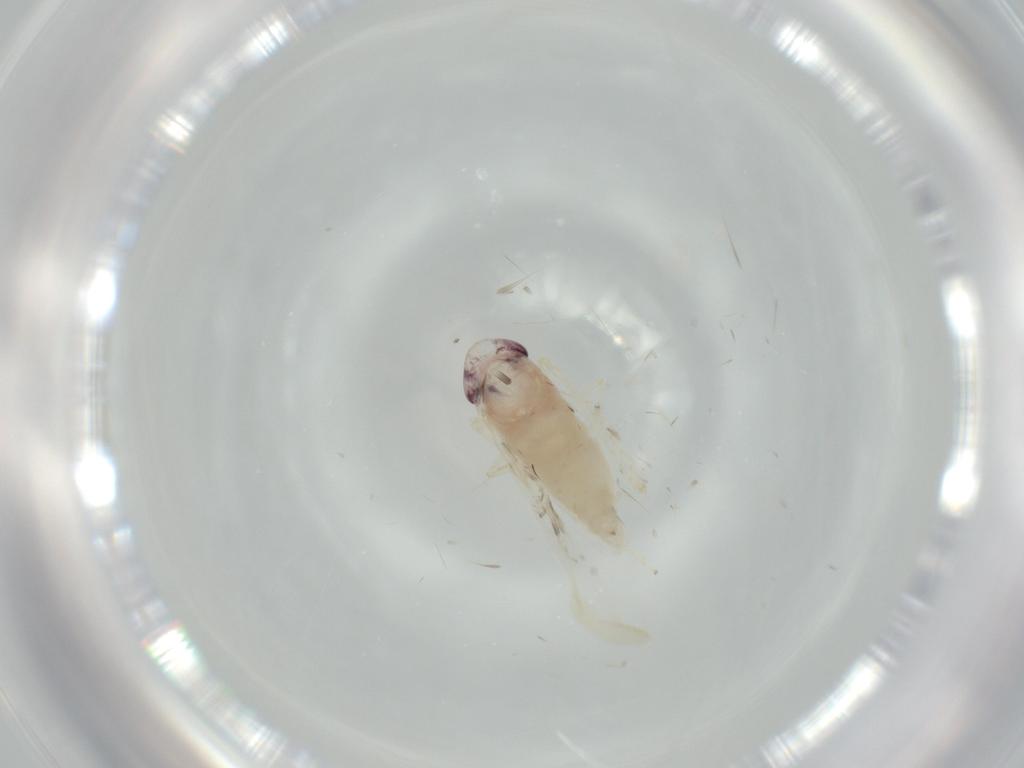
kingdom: Animalia
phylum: Arthropoda
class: Insecta
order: Hemiptera
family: Cicadellidae
